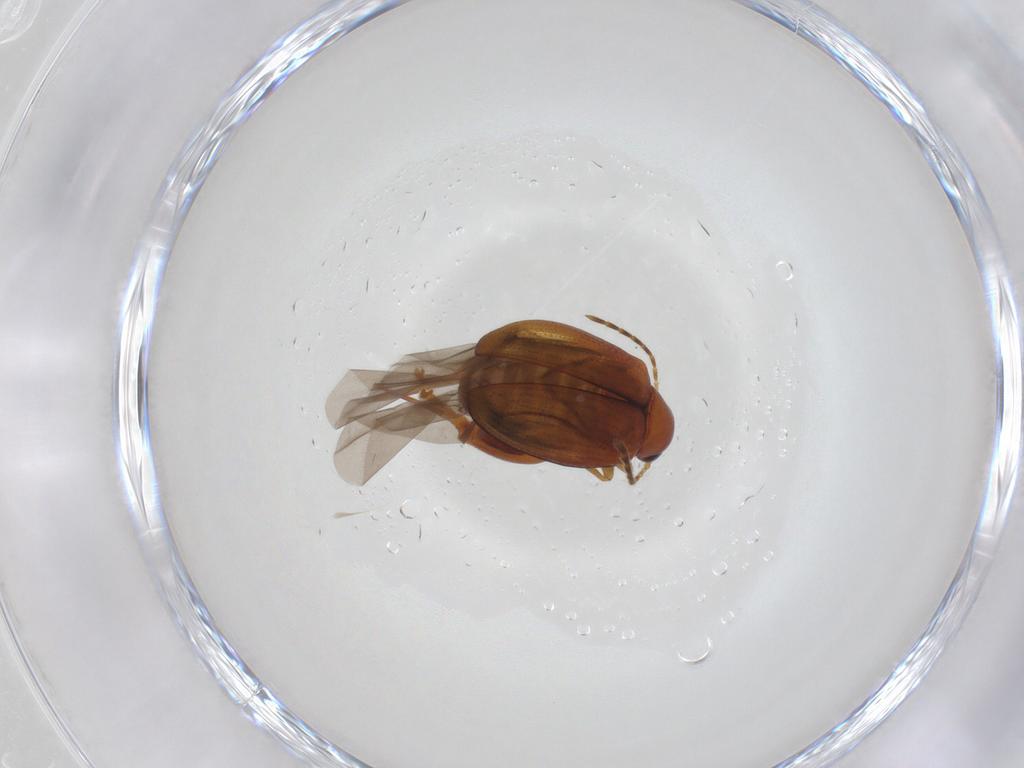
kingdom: Animalia
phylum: Arthropoda
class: Insecta
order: Coleoptera
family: Chrysomelidae
